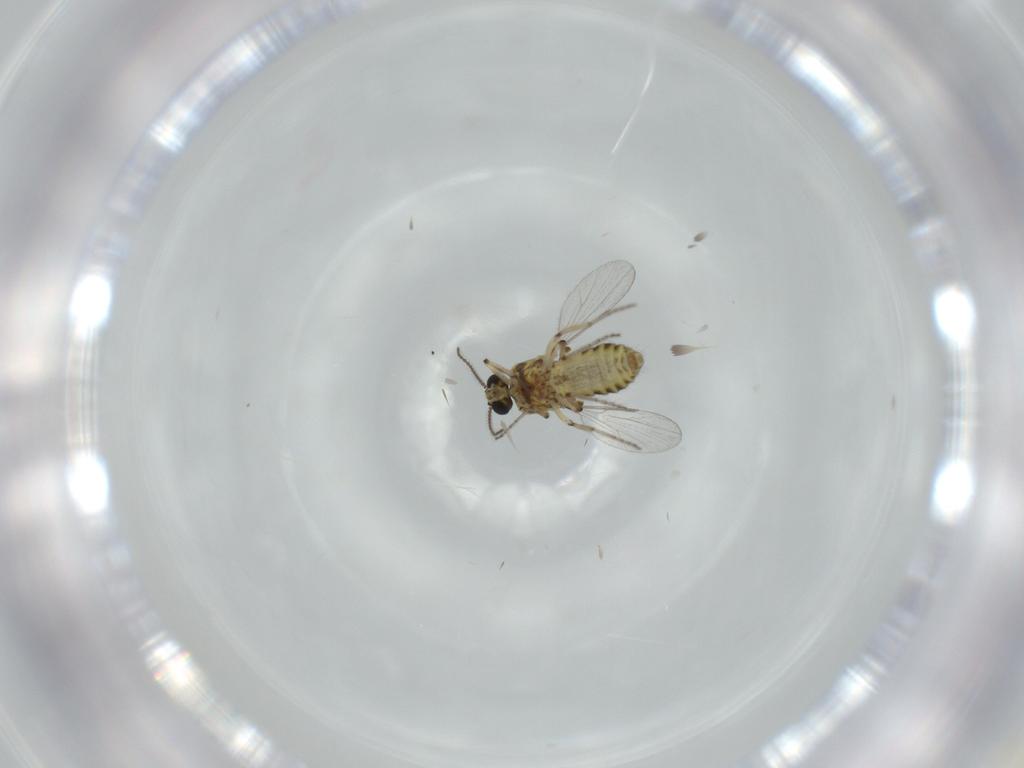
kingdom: Animalia
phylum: Arthropoda
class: Insecta
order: Diptera
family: Ceratopogonidae
